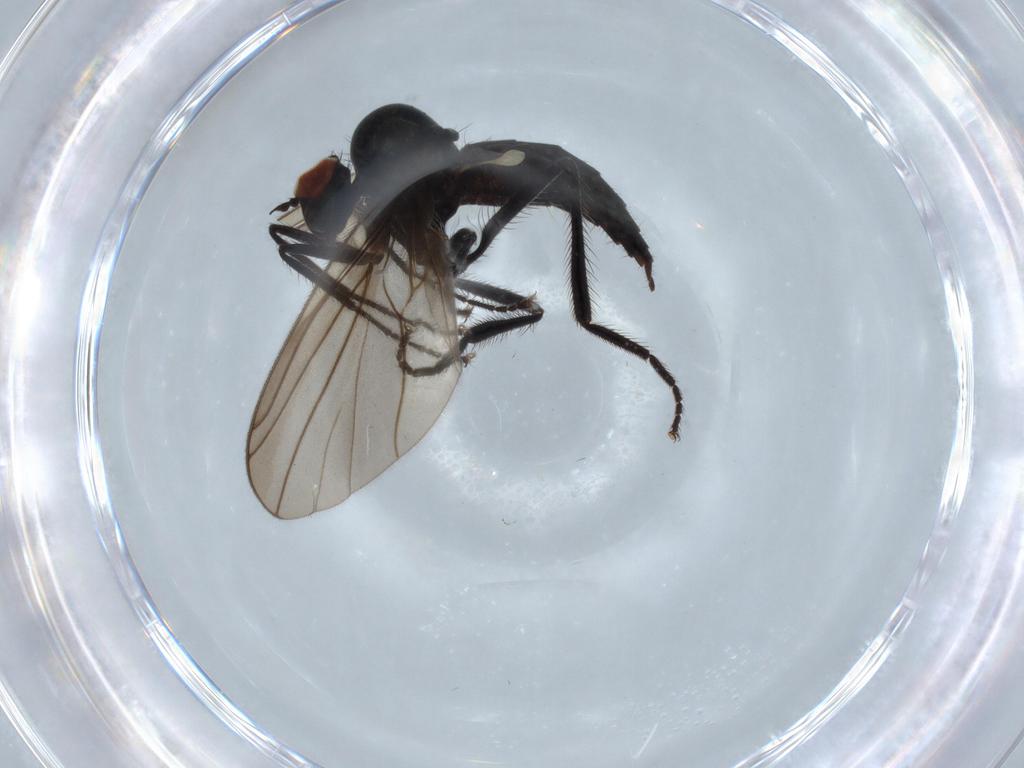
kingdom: Animalia
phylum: Arthropoda
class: Insecta
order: Diptera
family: Hybotidae
